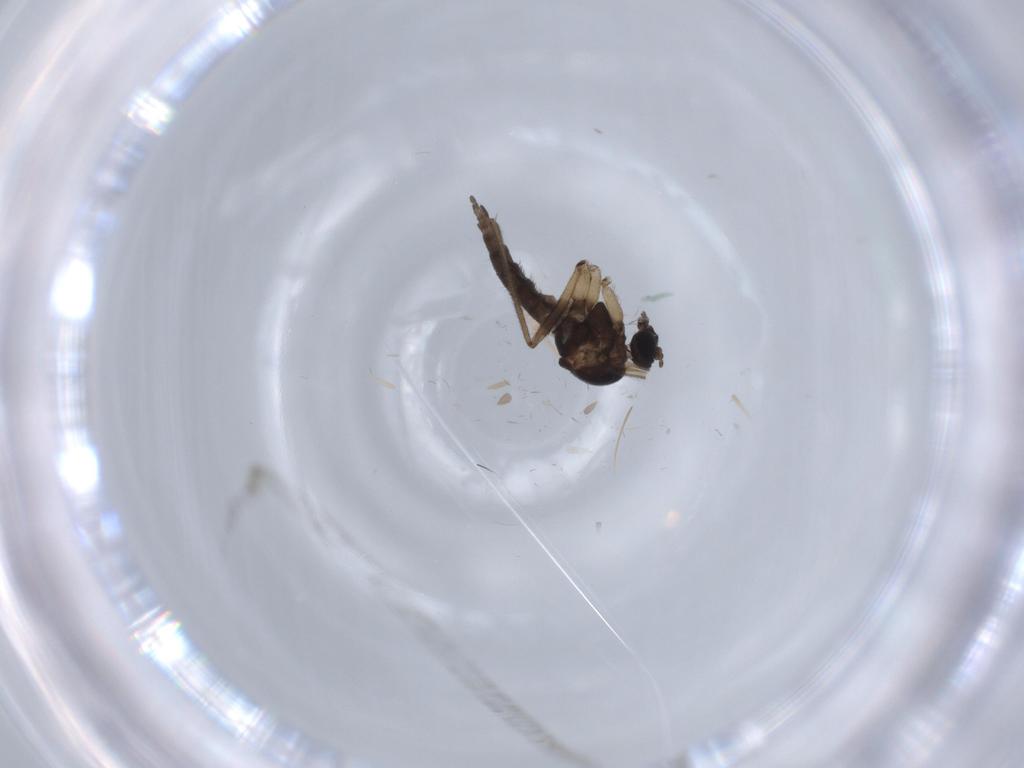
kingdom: Animalia
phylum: Arthropoda
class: Insecta
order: Diptera
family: Sciaridae
